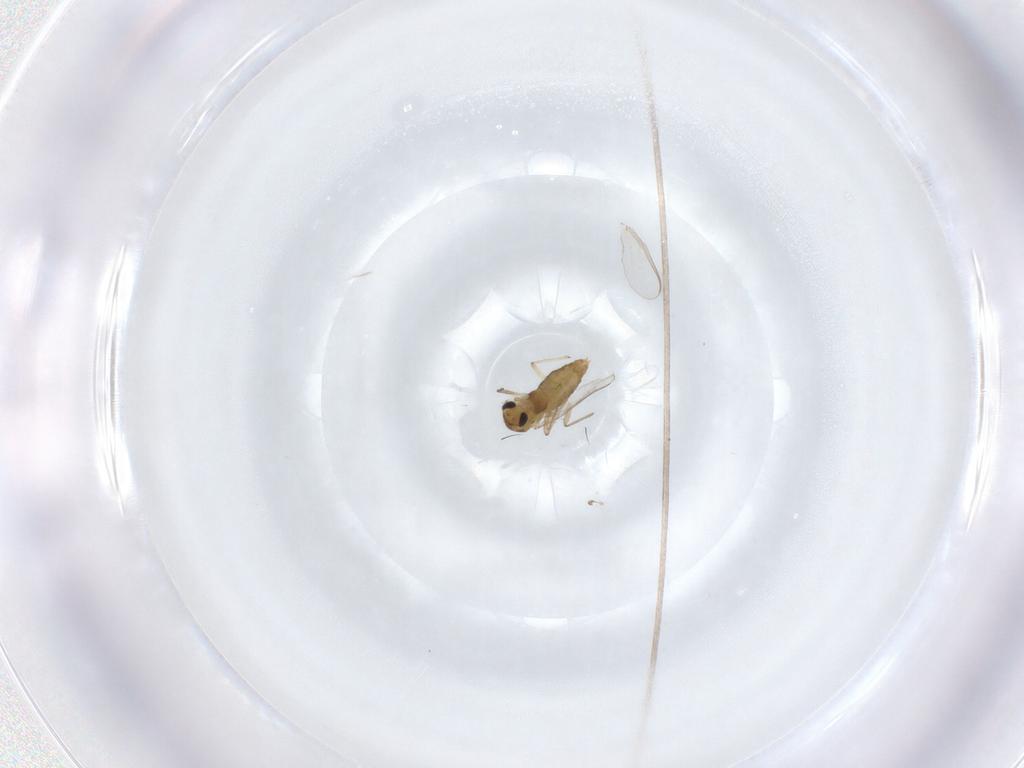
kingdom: Animalia
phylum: Arthropoda
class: Insecta
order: Diptera
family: Chironomidae
